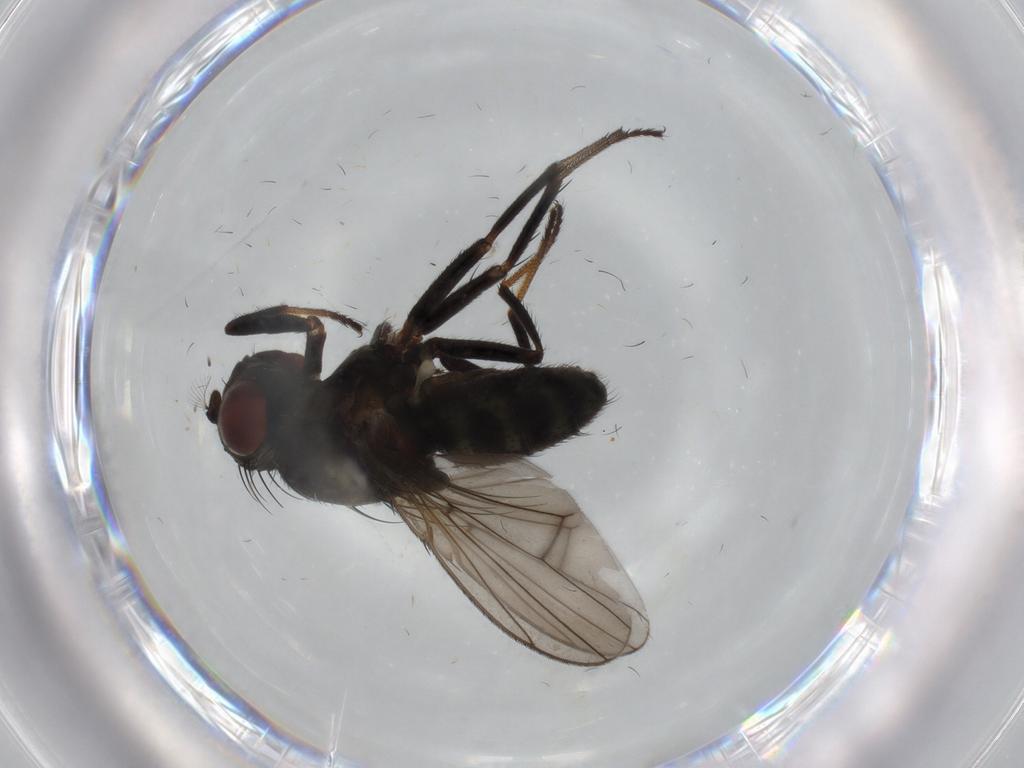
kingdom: Animalia
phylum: Arthropoda
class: Insecta
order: Diptera
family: Ephydridae
